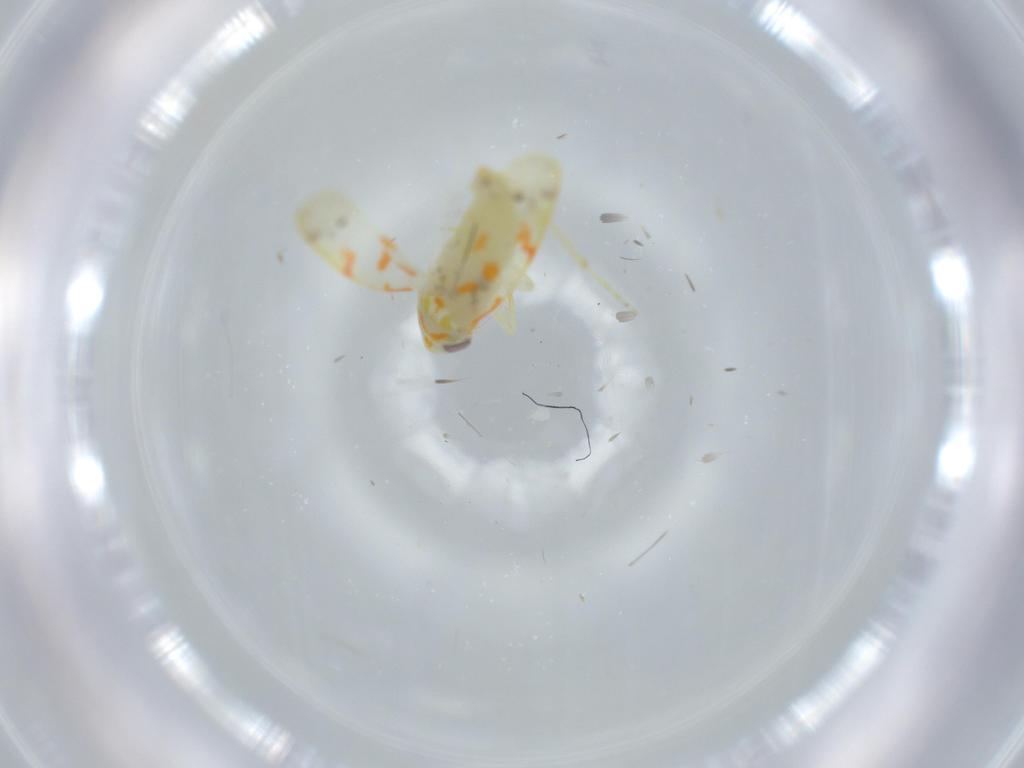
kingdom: Animalia
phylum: Arthropoda
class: Insecta
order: Hemiptera
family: Cicadellidae
